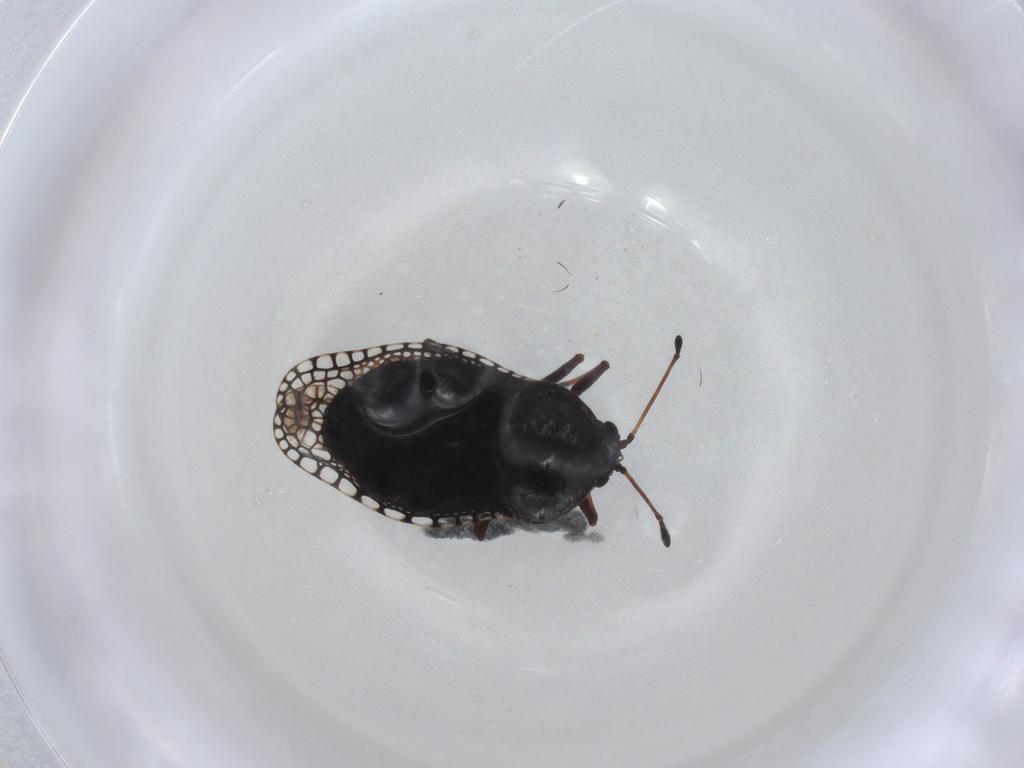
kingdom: Animalia
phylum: Arthropoda
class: Insecta
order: Hemiptera
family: Tingidae
